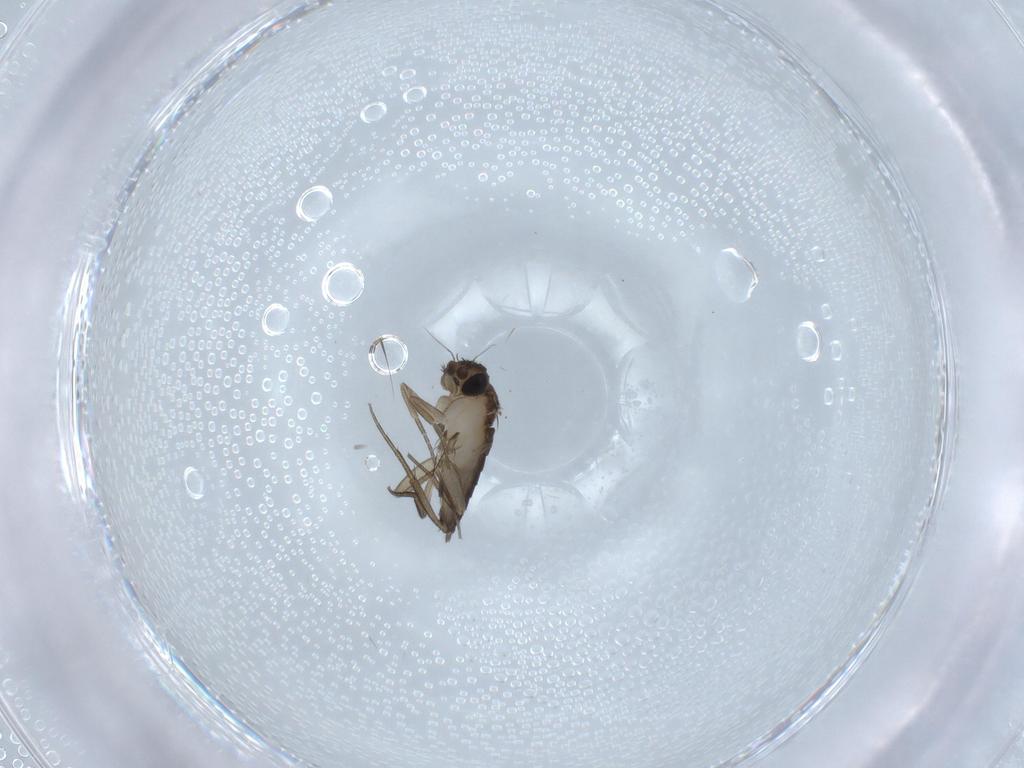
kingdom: Animalia
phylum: Arthropoda
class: Insecta
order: Diptera
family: Phoridae
